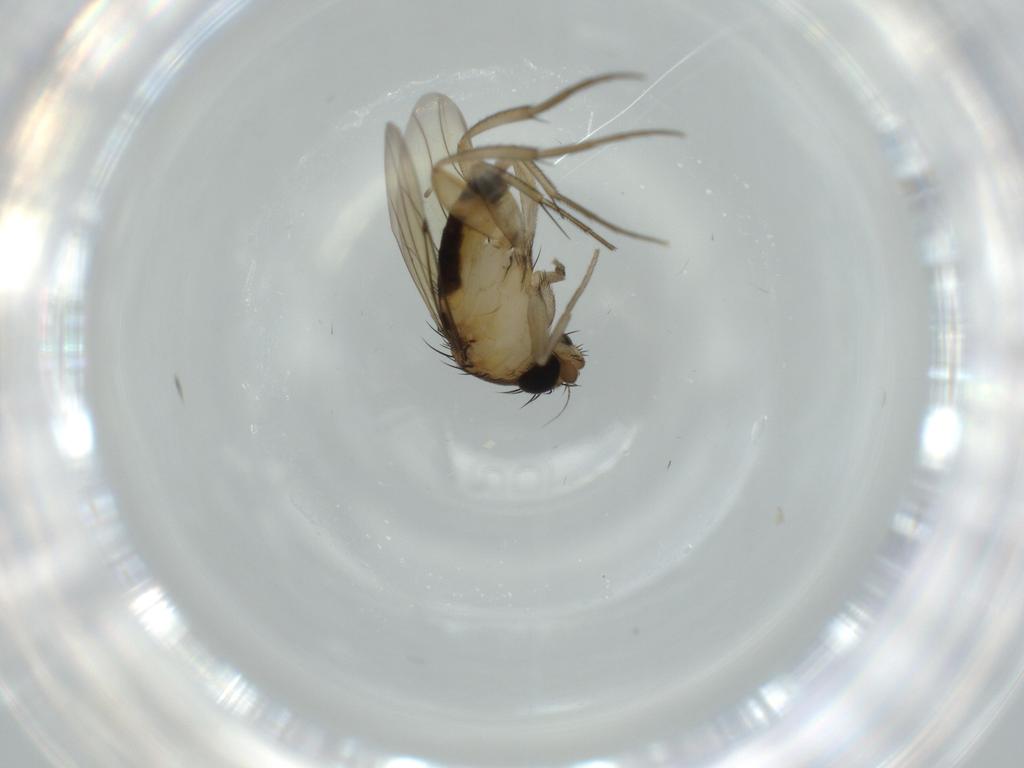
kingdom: Animalia
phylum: Arthropoda
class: Insecta
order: Diptera
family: Phoridae
